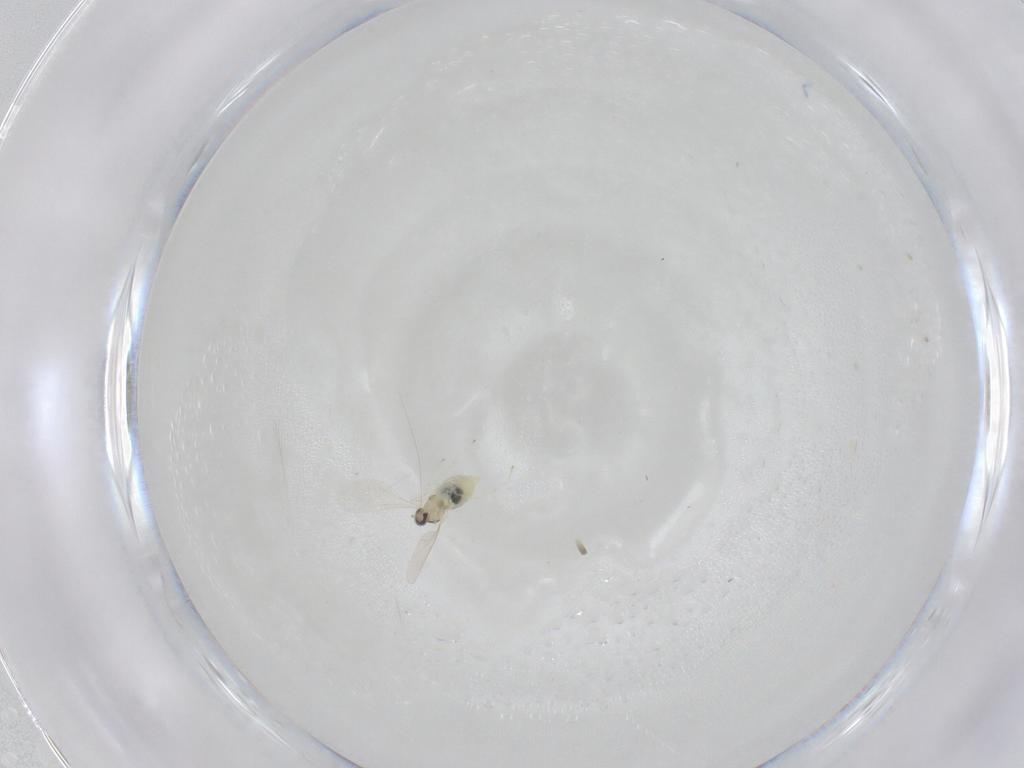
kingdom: Animalia
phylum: Arthropoda
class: Insecta
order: Diptera
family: Cecidomyiidae
